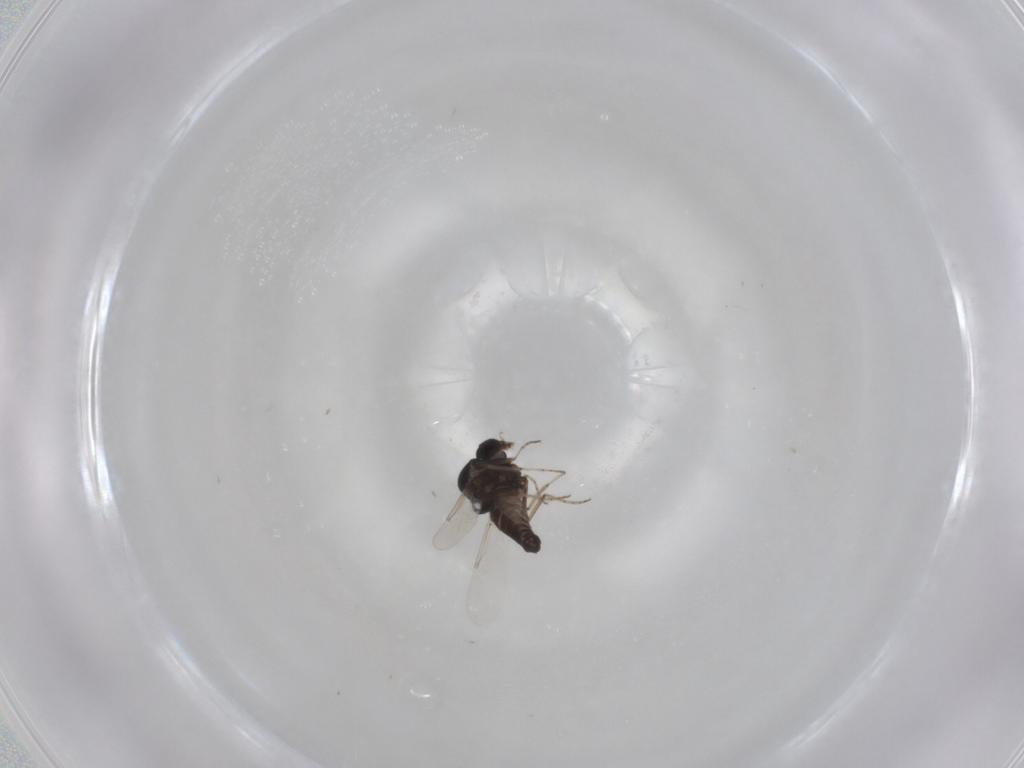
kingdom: Animalia
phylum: Arthropoda
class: Insecta
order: Diptera
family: Ceratopogonidae
